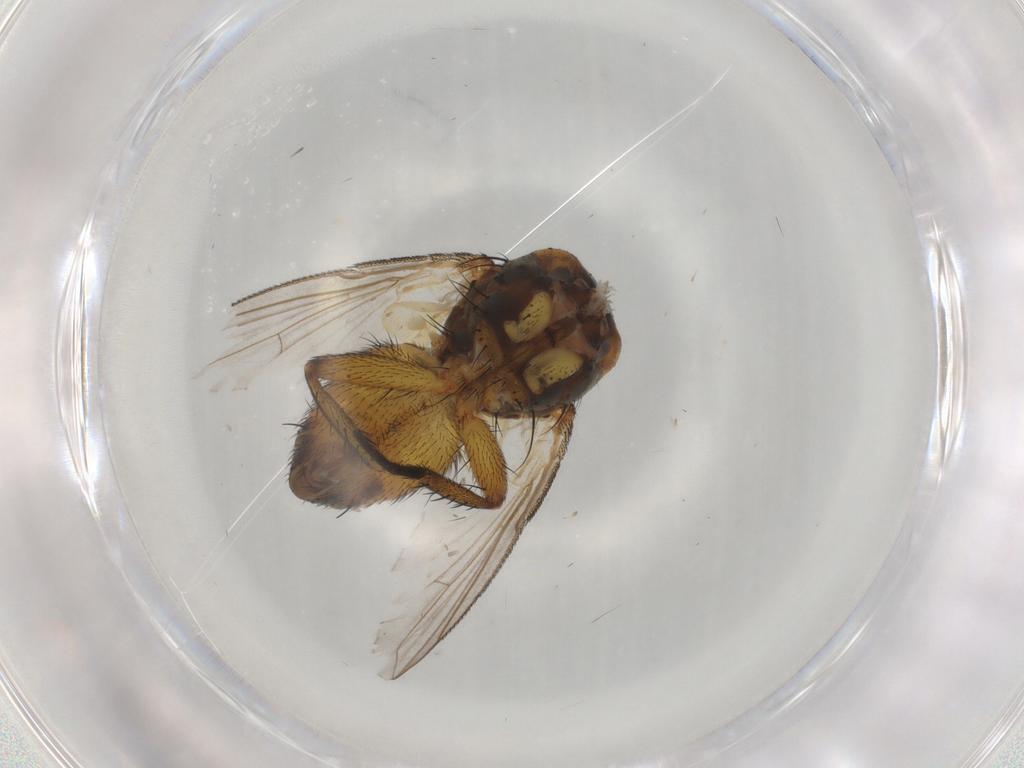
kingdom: Animalia
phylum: Arthropoda
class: Insecta
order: Diptera
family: Tachinidae
